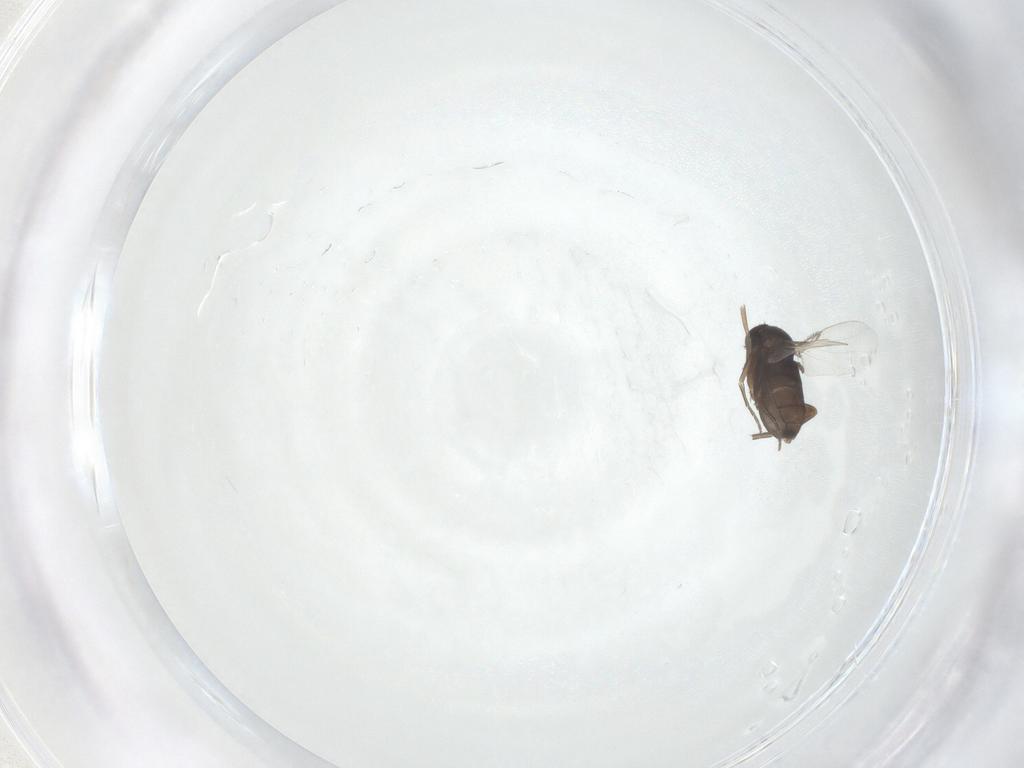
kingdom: Animalia
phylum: Arthropoda
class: Insecta
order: Diptera
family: Phoridae
